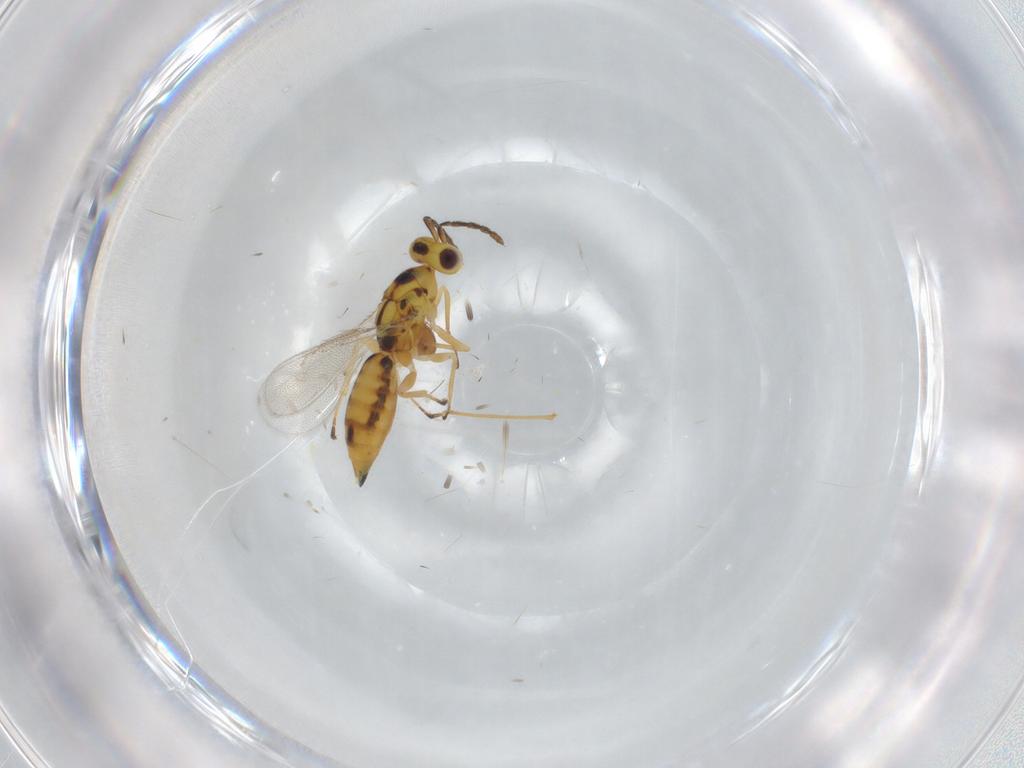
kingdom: Animalia
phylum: Arthropoda
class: Insecta
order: Hymenoptera
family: Eulophidae
